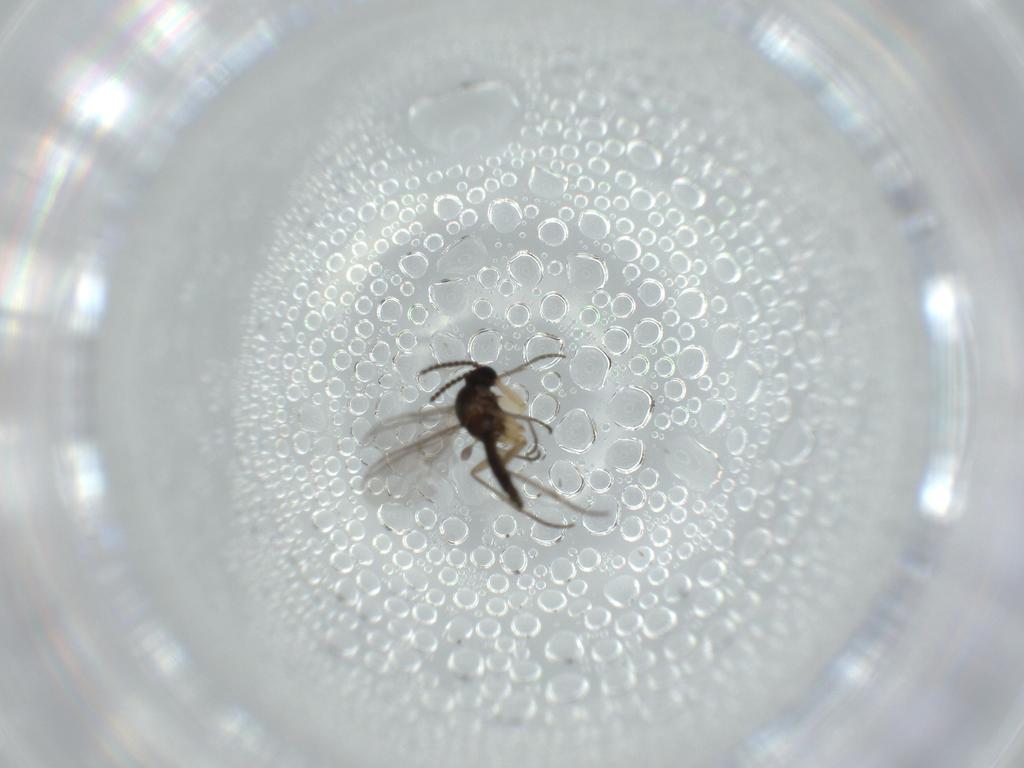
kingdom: Animalia
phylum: Arthropoda
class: Insecta
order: Diptera
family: Sciaridae
